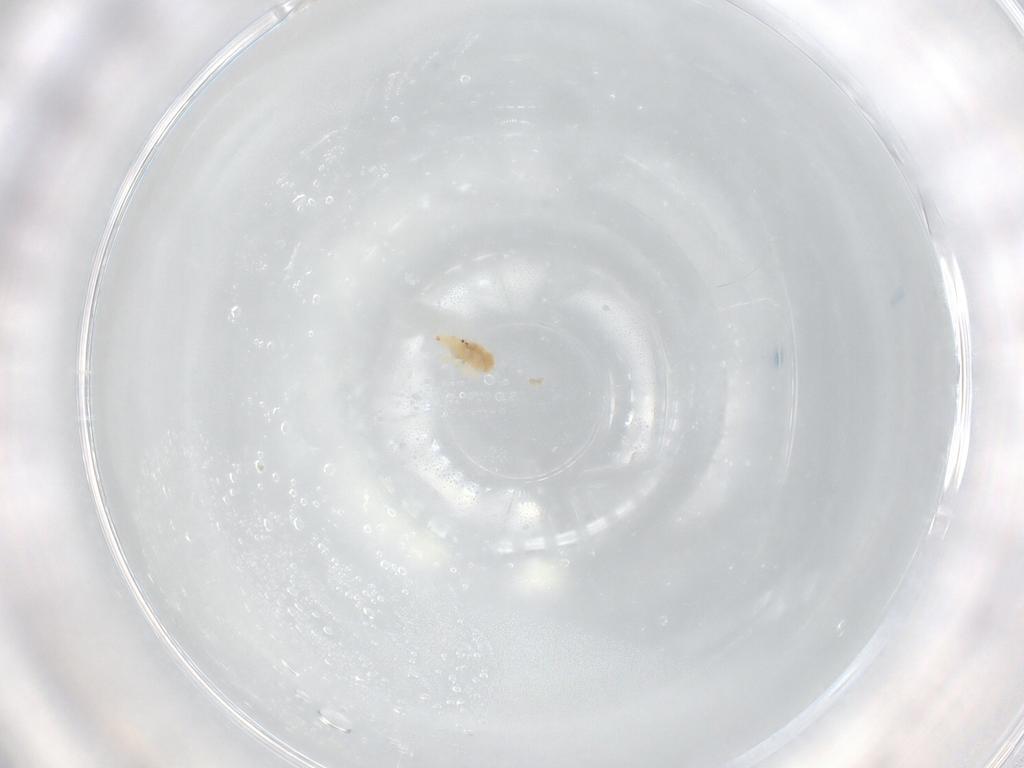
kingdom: Animalia
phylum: Arthropoda
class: Arachnida
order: Trombidiformes
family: Bdellidae
